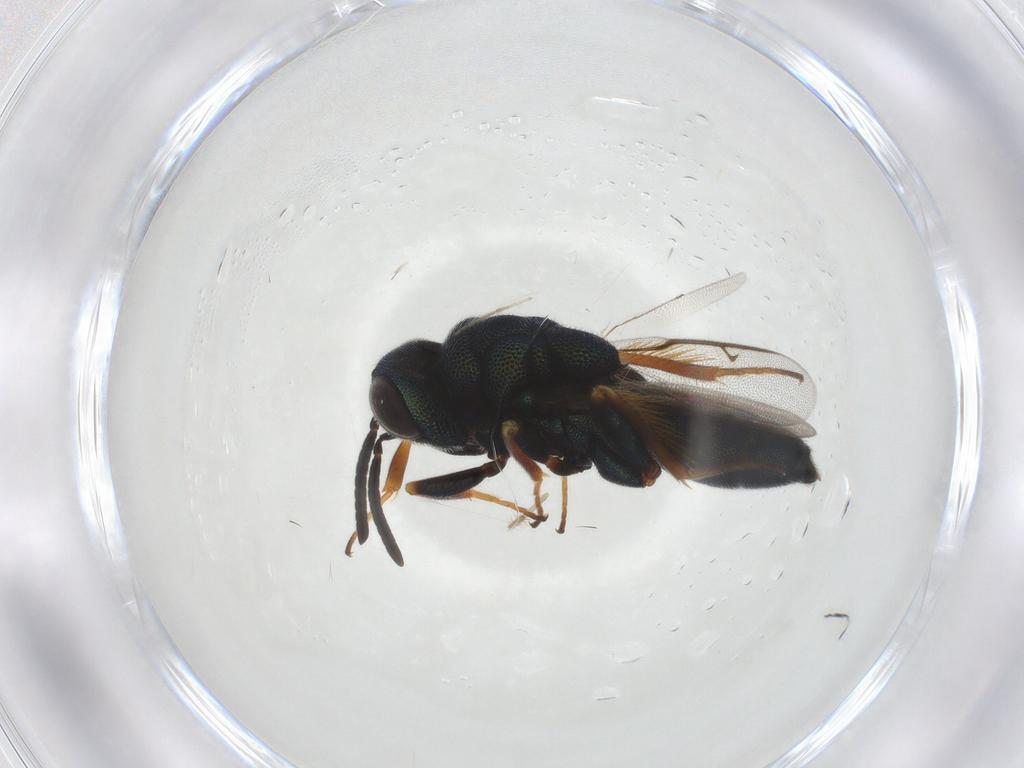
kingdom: Animalia
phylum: Arthropoda
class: Insecta
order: Hymenoptera
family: Eulophidae
